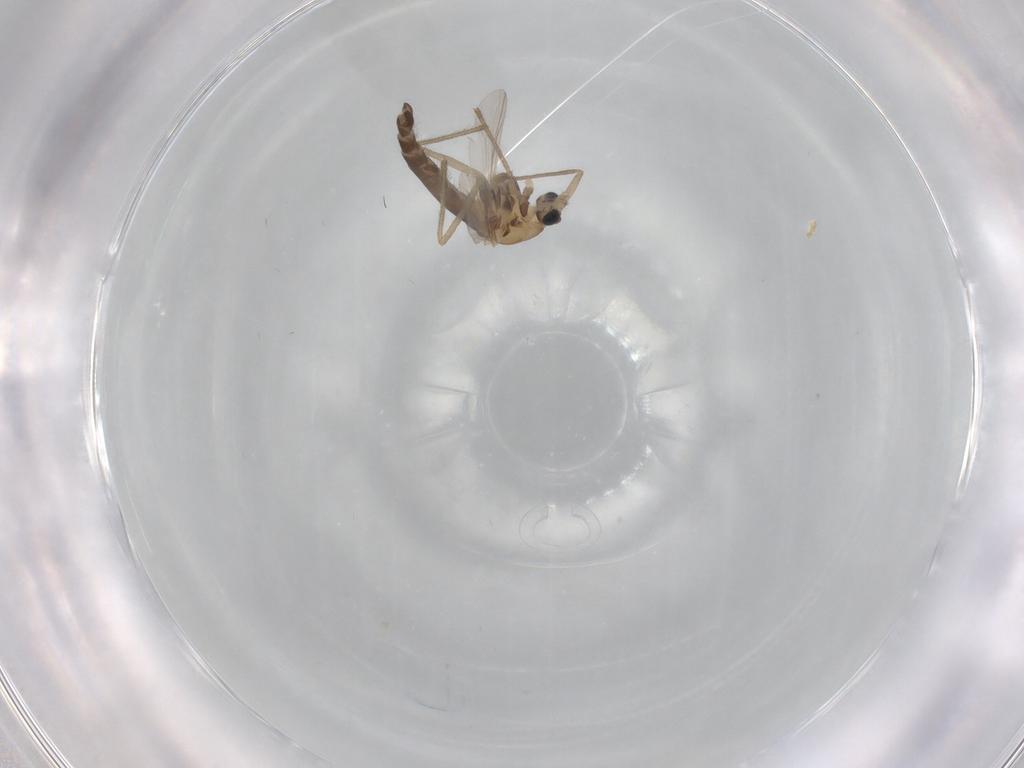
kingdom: Animalia
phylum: Arthropoda
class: Insecta
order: Diptera
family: Chironomidae
